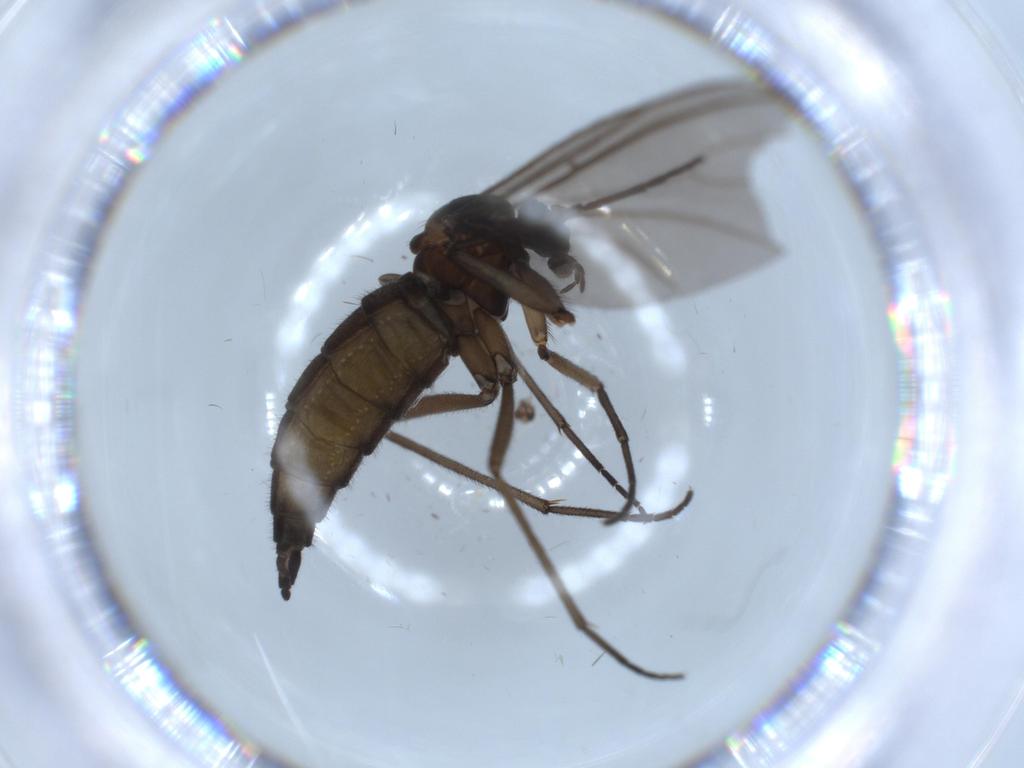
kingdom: Animalia
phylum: Arthropoda
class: Insecta
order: Diptera
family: Sciaridae
